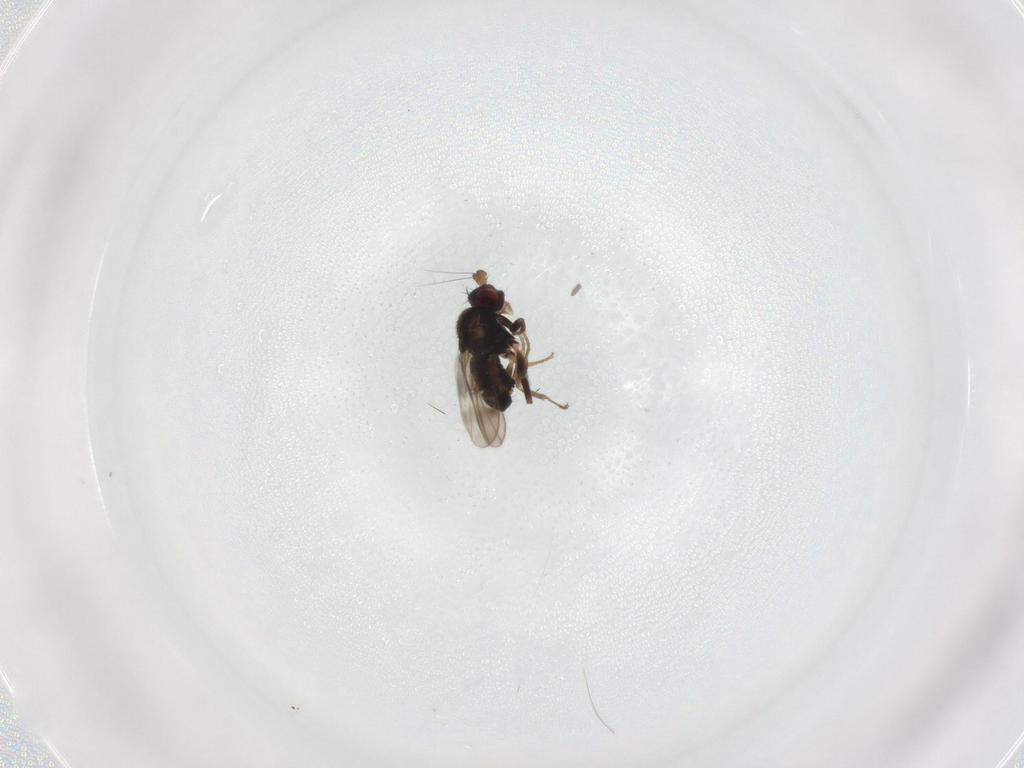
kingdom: Animalia
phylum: Arthropoda
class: Insecta
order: Diptera
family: Sphaeroceridae
